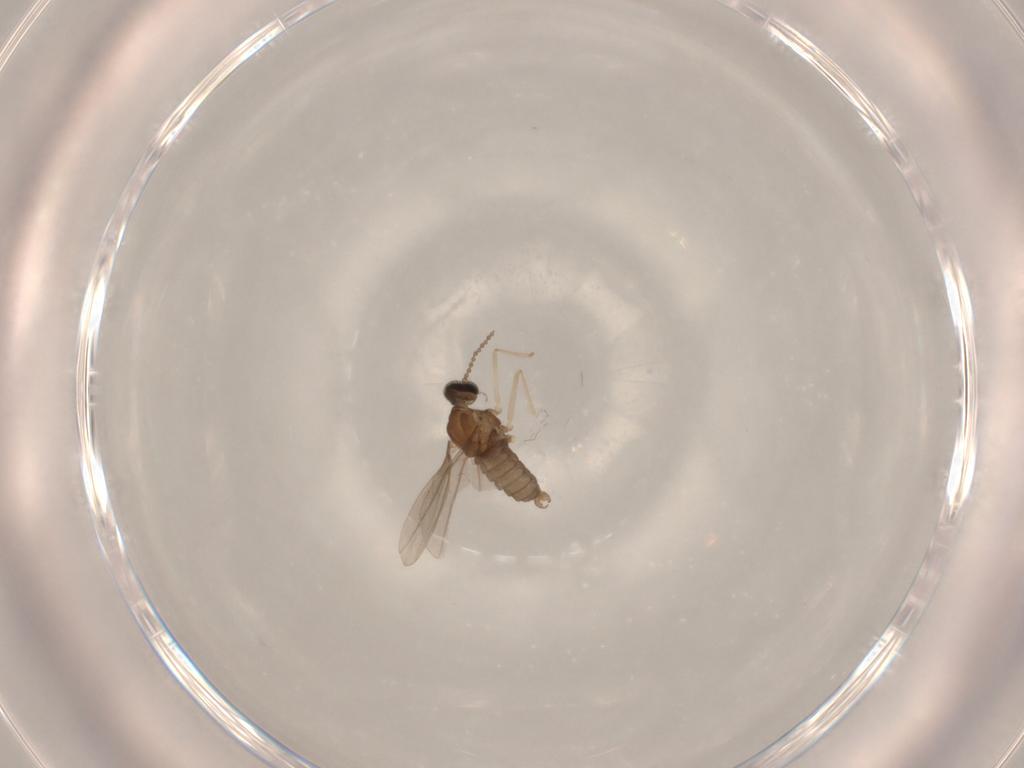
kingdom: Animalia
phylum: Arthropoda
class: Insecta
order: Diptera
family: Cecidomyiidae
